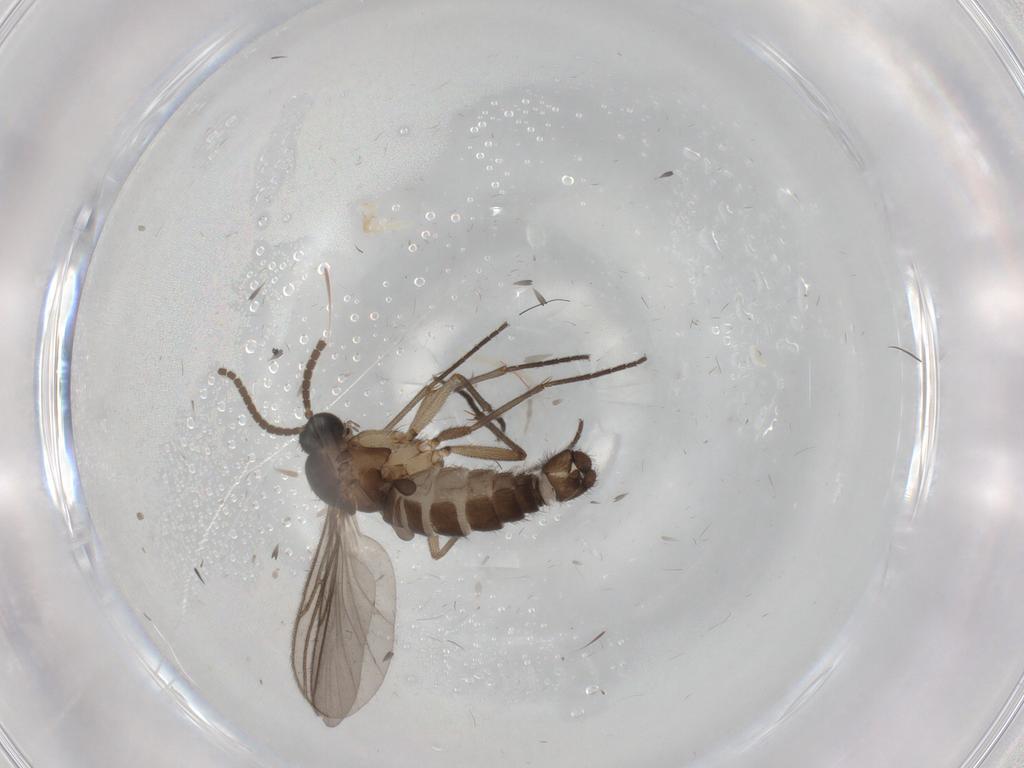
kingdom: Animalia
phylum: Arthropoda
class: Insecta
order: Diptera
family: Sciaridae
